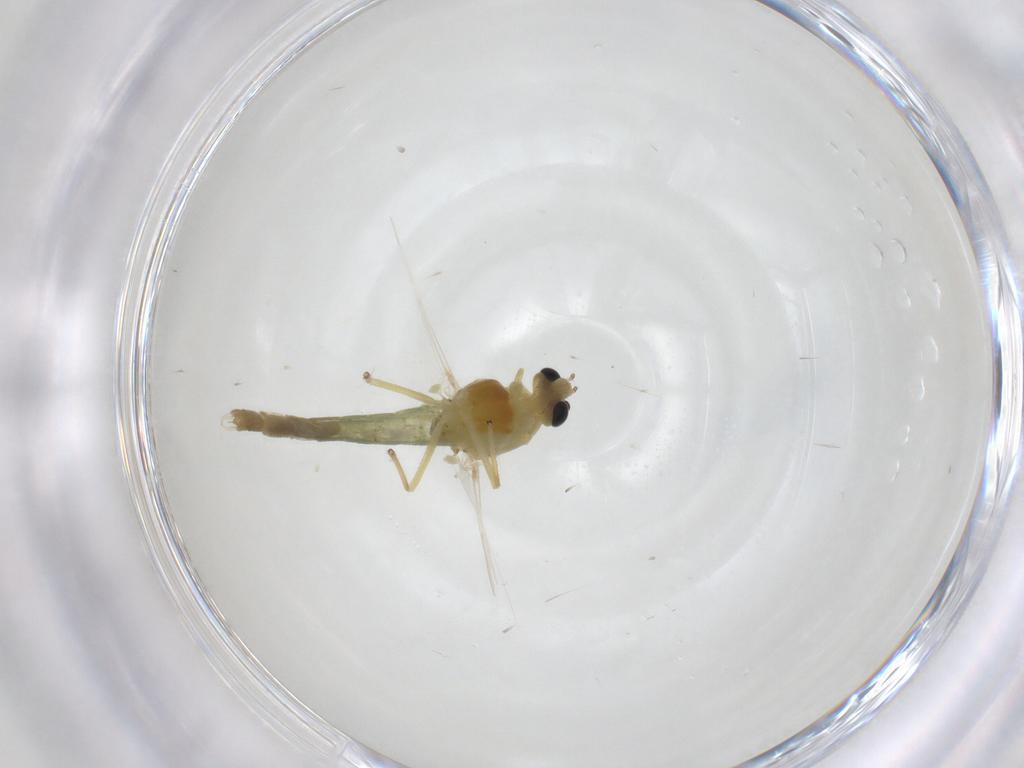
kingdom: Animalia
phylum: Arthropoda
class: Insecta
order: Diptera
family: Chironomidae
